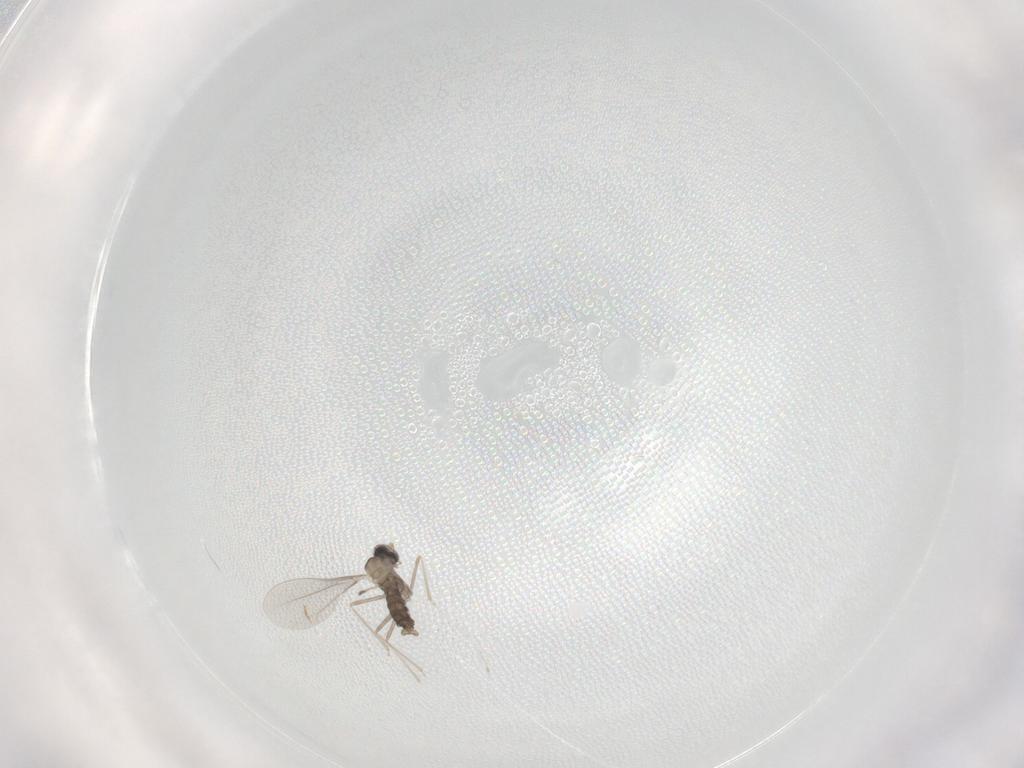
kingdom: Animalia
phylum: Arthropoda
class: Insecta
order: Diptera
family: Cecidomyiidae
